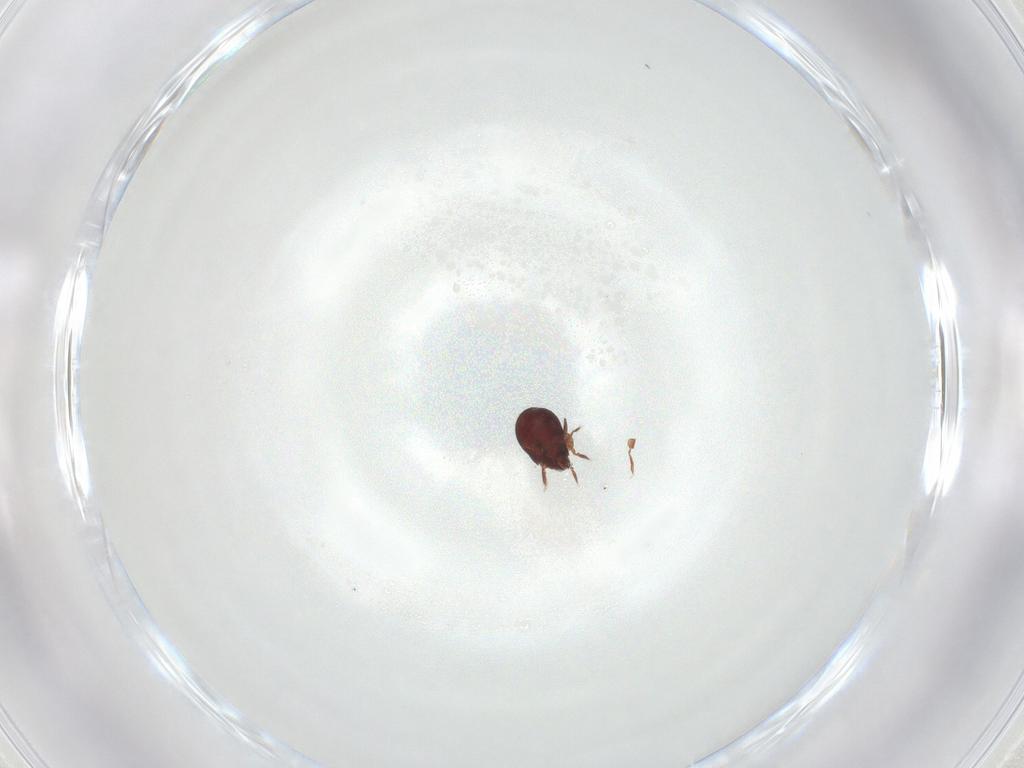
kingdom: Animalia
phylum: Arthropoda
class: Arachnida
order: Sarcoptiformes
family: Humerobatidae
